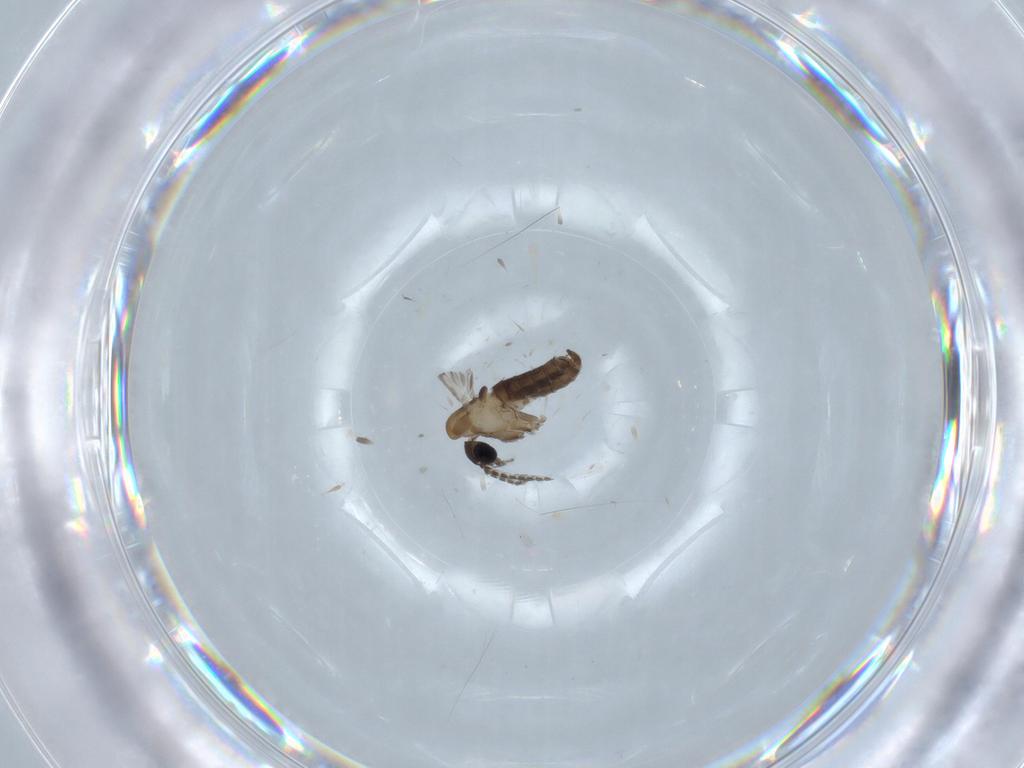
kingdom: Animalia
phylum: Arthropoda
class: Insecta
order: Diptera
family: Psychodidae
